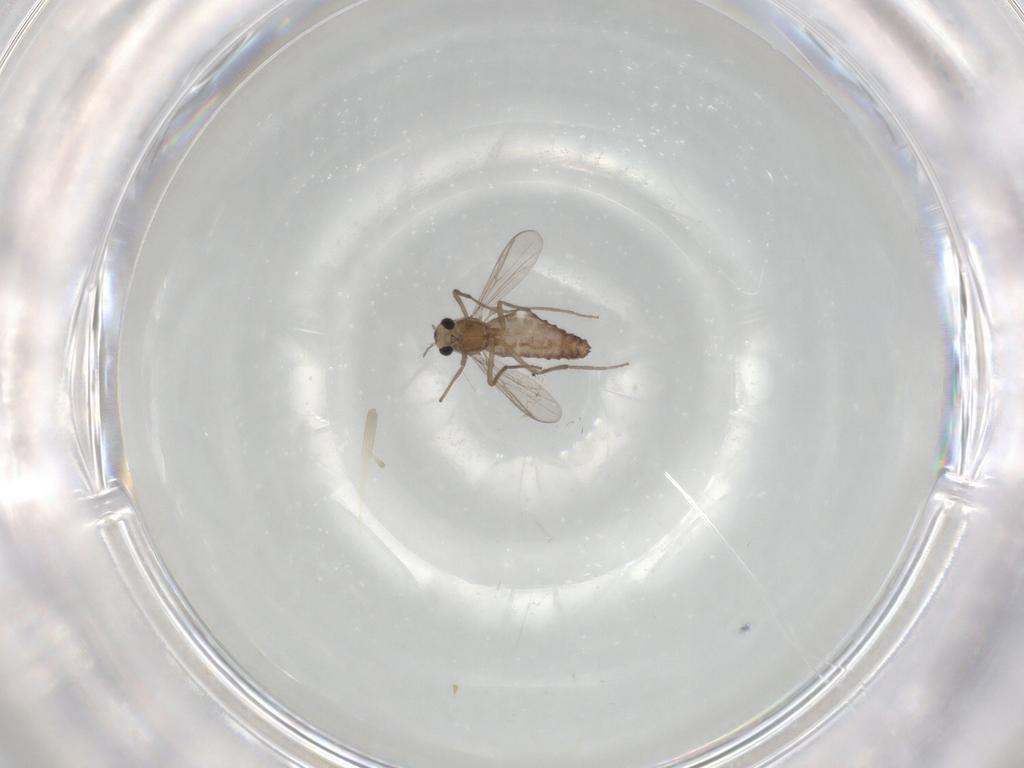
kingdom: Animalia
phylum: Arthropoda
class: Insecta
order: Diptera
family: Chironomidae
